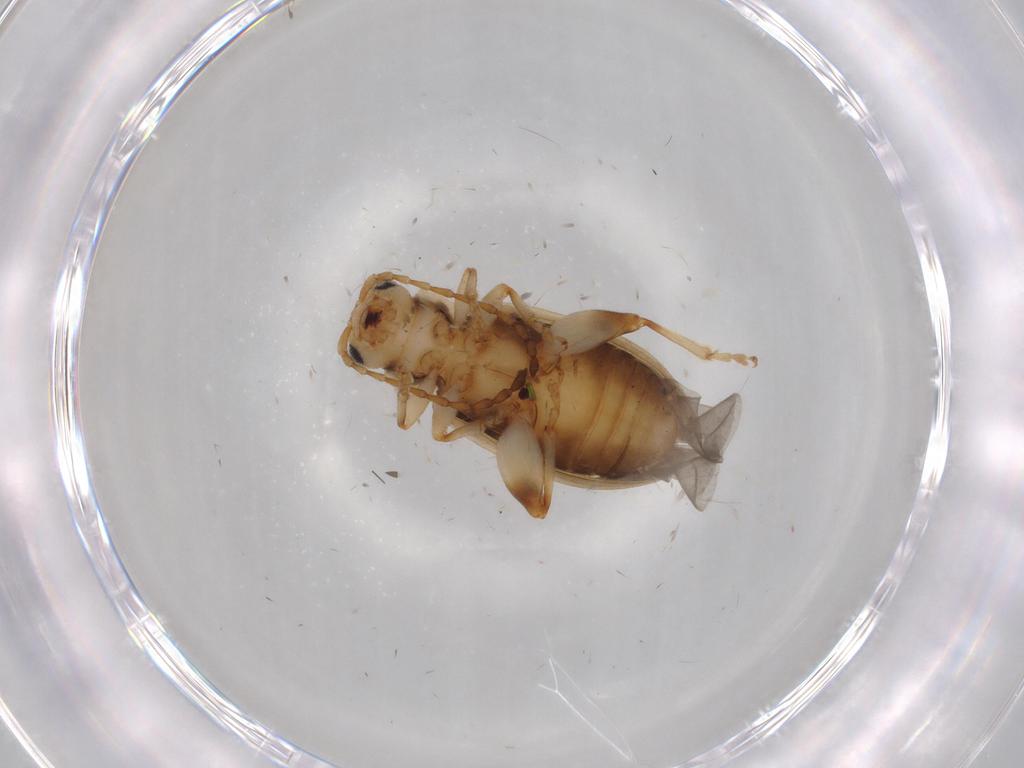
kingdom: Animalia
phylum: Arthropoda
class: Insecta
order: Coleoptera
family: Chrysomelidae
